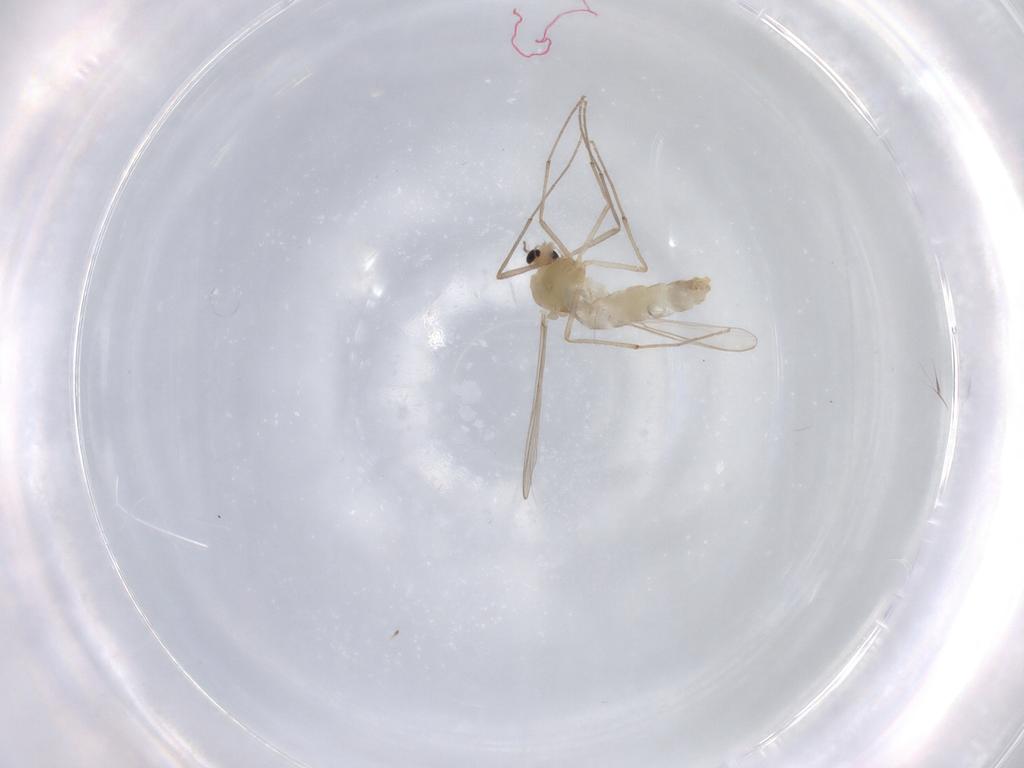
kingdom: Animalia
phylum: Arthropoda
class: Insecta
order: Diptera
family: Chironomidae
